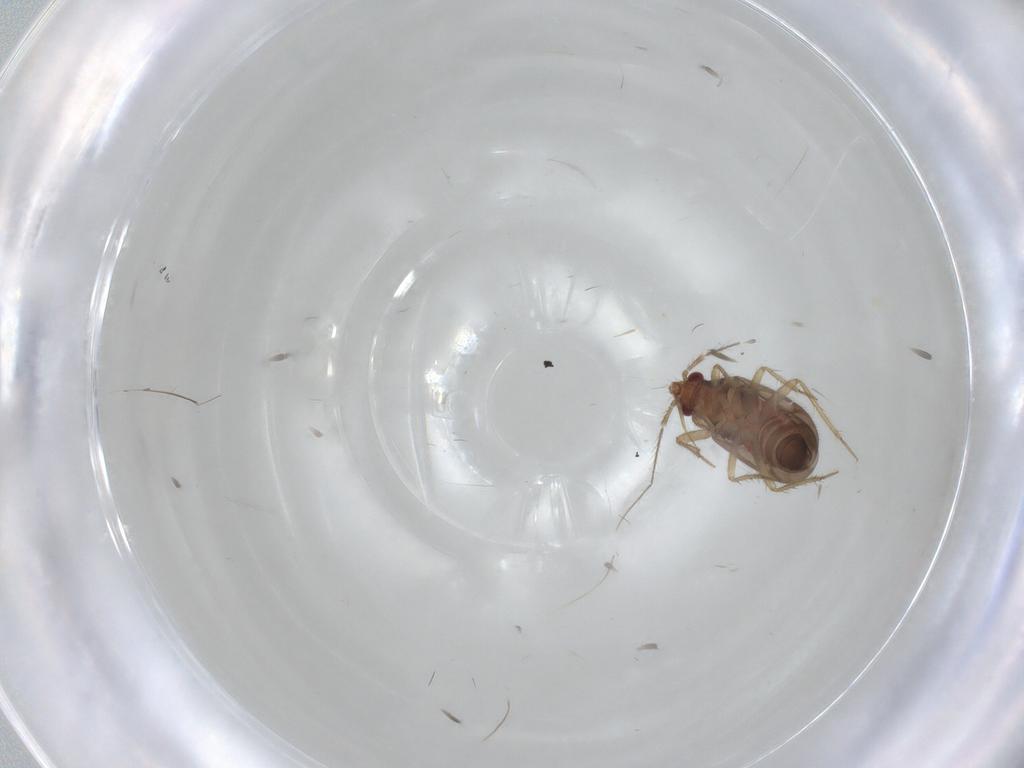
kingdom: Animalia
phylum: Arthropoda
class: Insecta
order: Hemiptera
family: Ceratocombidae
